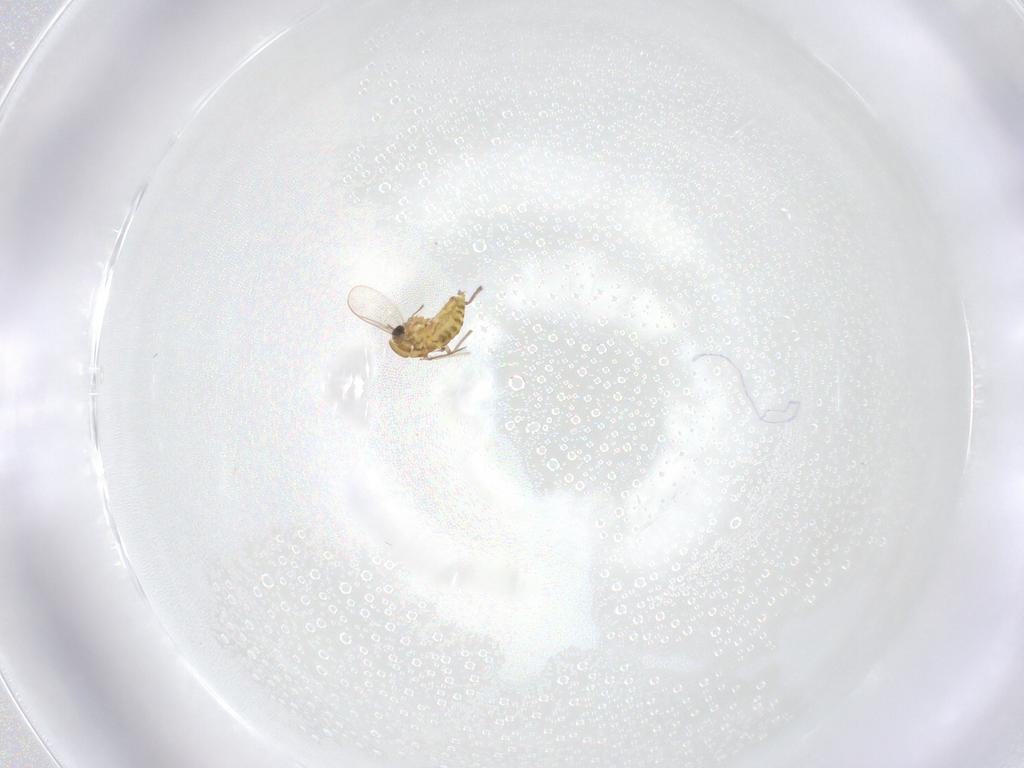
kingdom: Animalia
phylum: Arthropoda
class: Insecta
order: Diptera
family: Chironomidae
